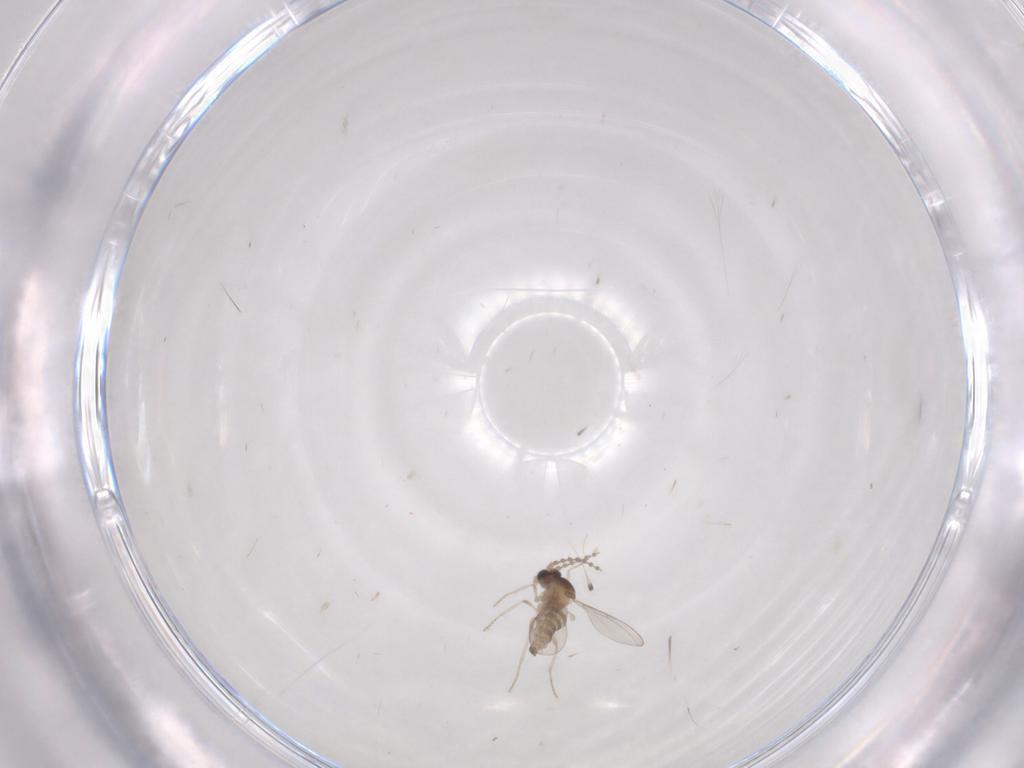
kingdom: Animalia
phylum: Arthropoda
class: Insecta
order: Diptera
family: Cecidomyiidae
